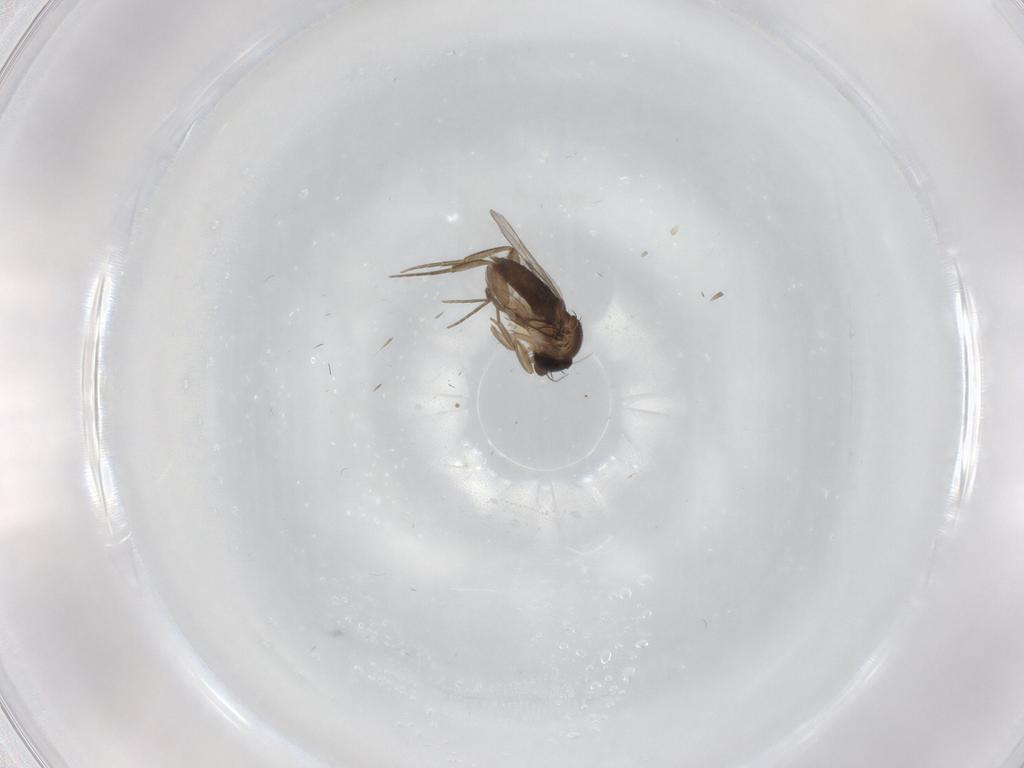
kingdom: Animalia
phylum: Arthropoda
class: Insecta
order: Diptera
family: Phoridae
